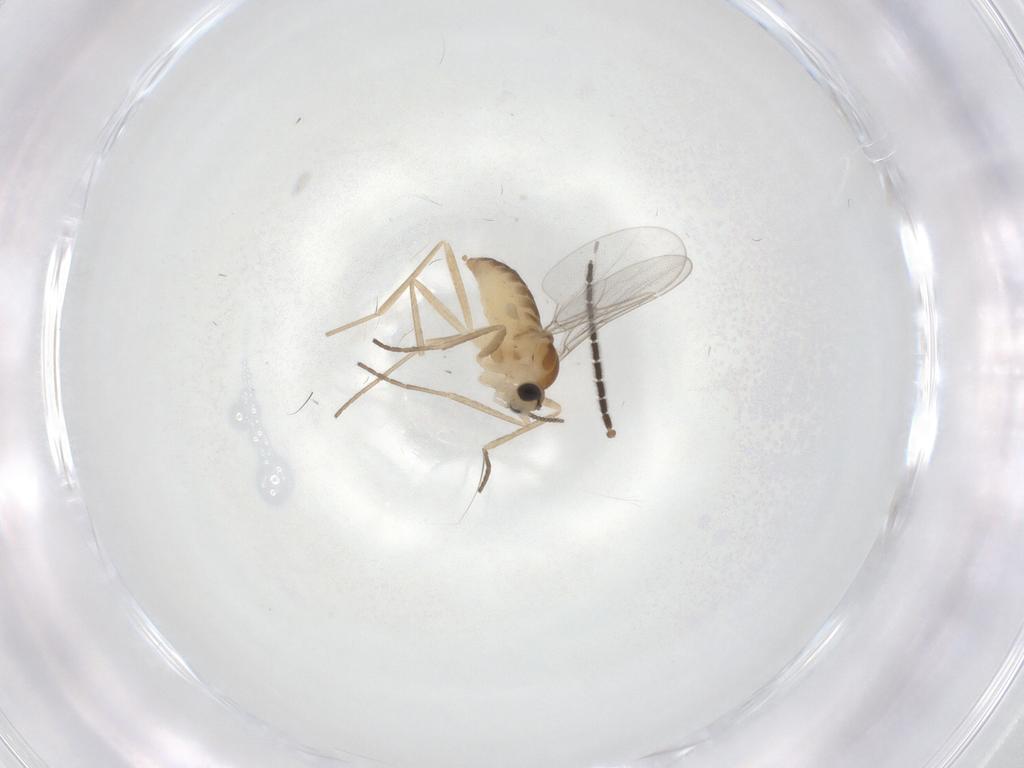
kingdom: Animalia
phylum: Arthropoda
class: Insecta
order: Diptera
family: Cecidomyiidae
